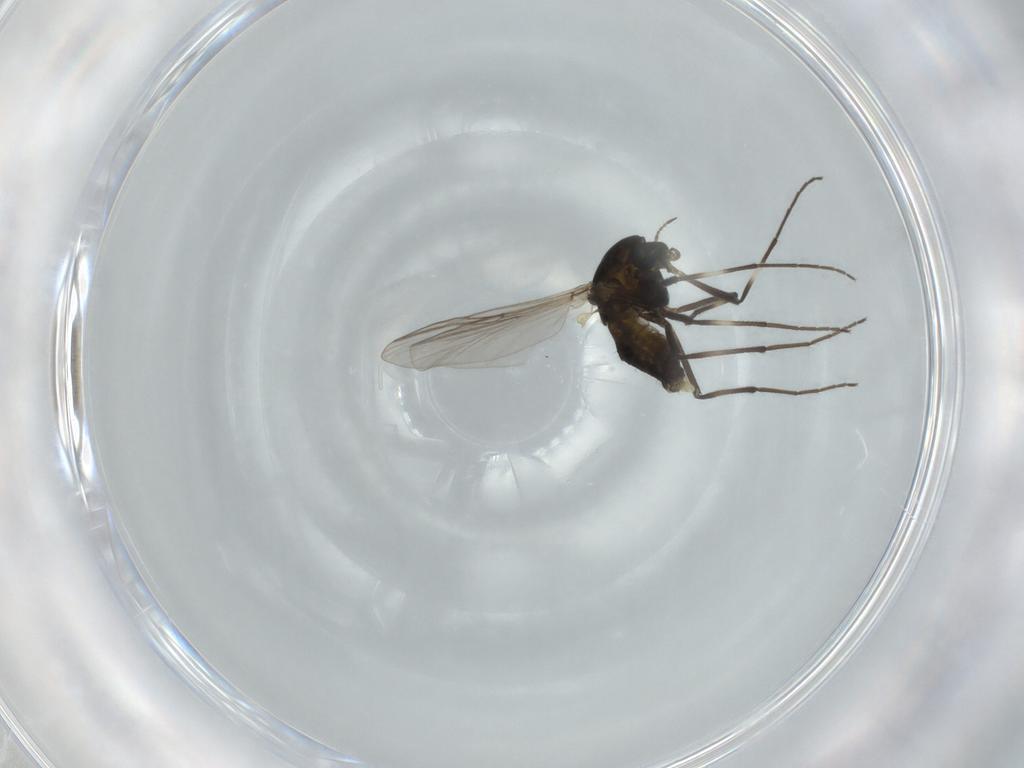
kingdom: Animalia
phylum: Arthropoda
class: Insecta
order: Diptera
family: Chironomidae
